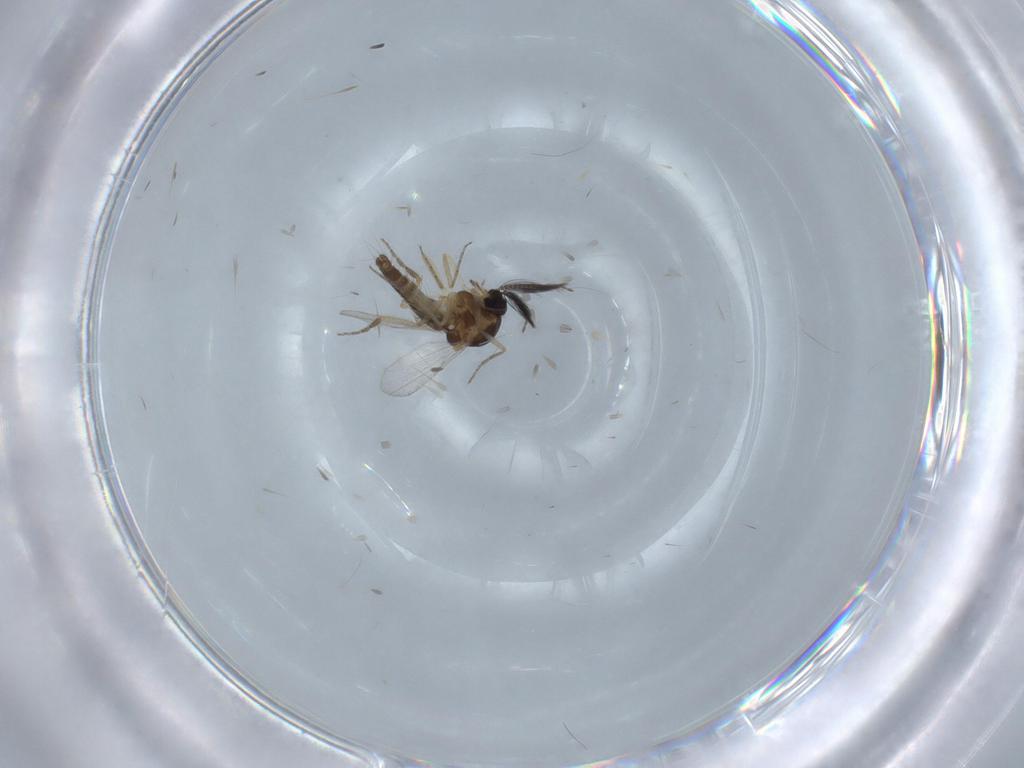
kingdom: Animalia
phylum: Arthropoda
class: Insecta
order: Diptera
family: Ceratopogonidae
